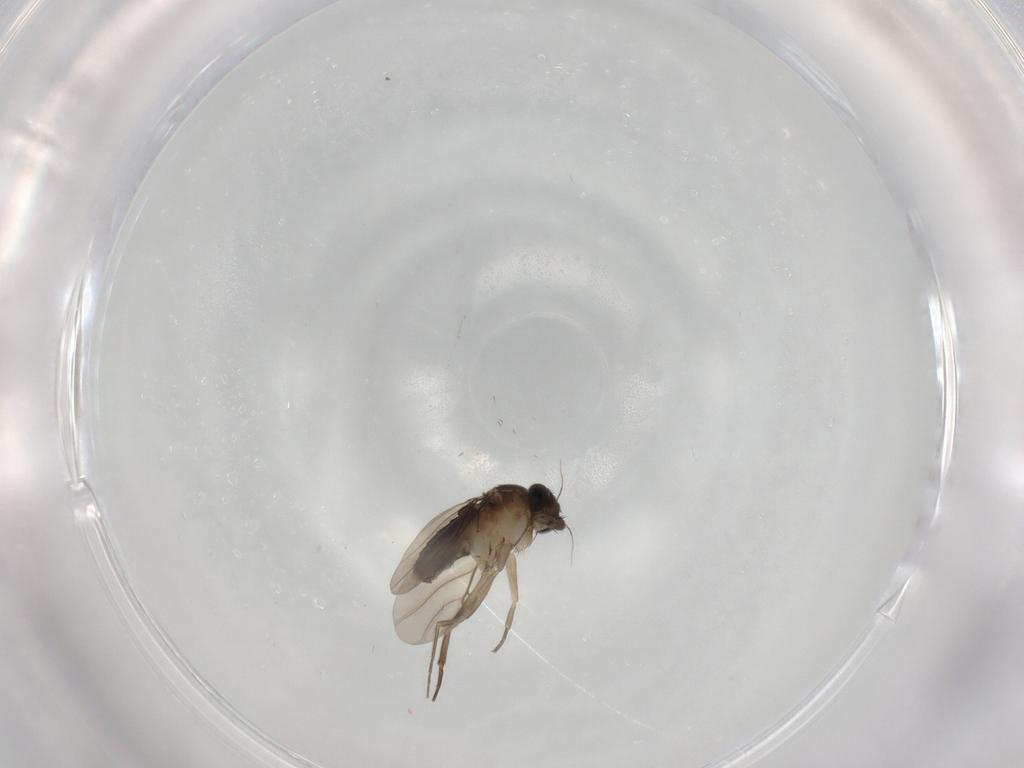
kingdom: Animalia
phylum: Arthropoda
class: Insecta
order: Diptera
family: Phoridae
